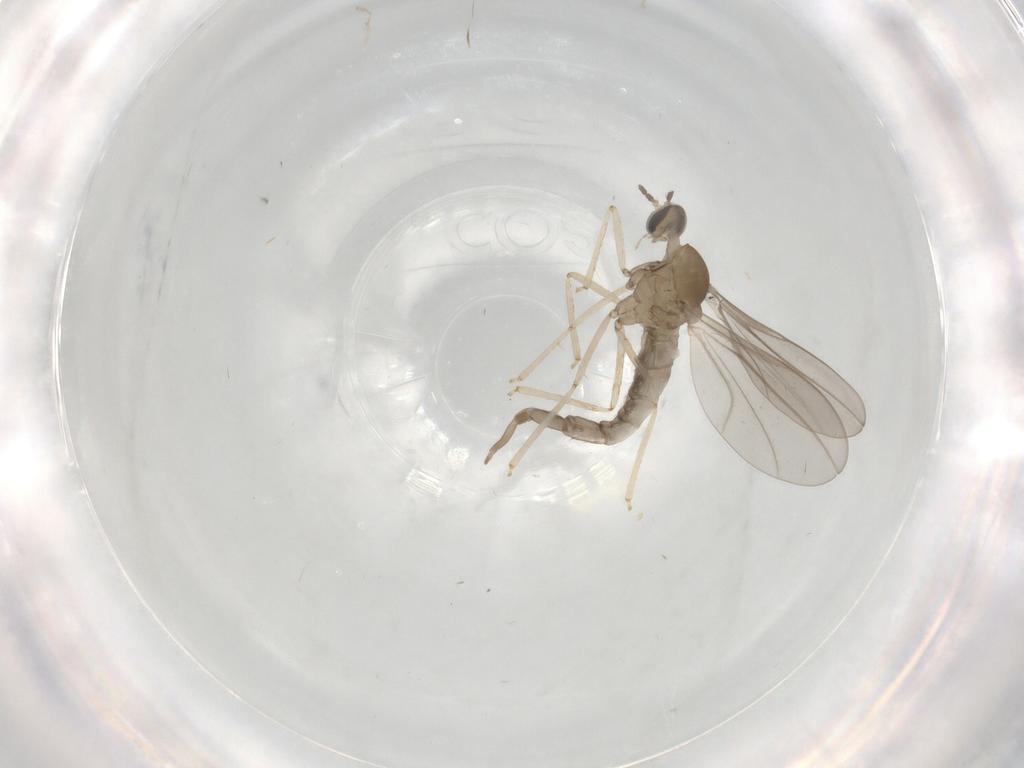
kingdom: Animalia
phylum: Arthropoda
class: Insecta
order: Diptera
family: Cecidomyiidae
